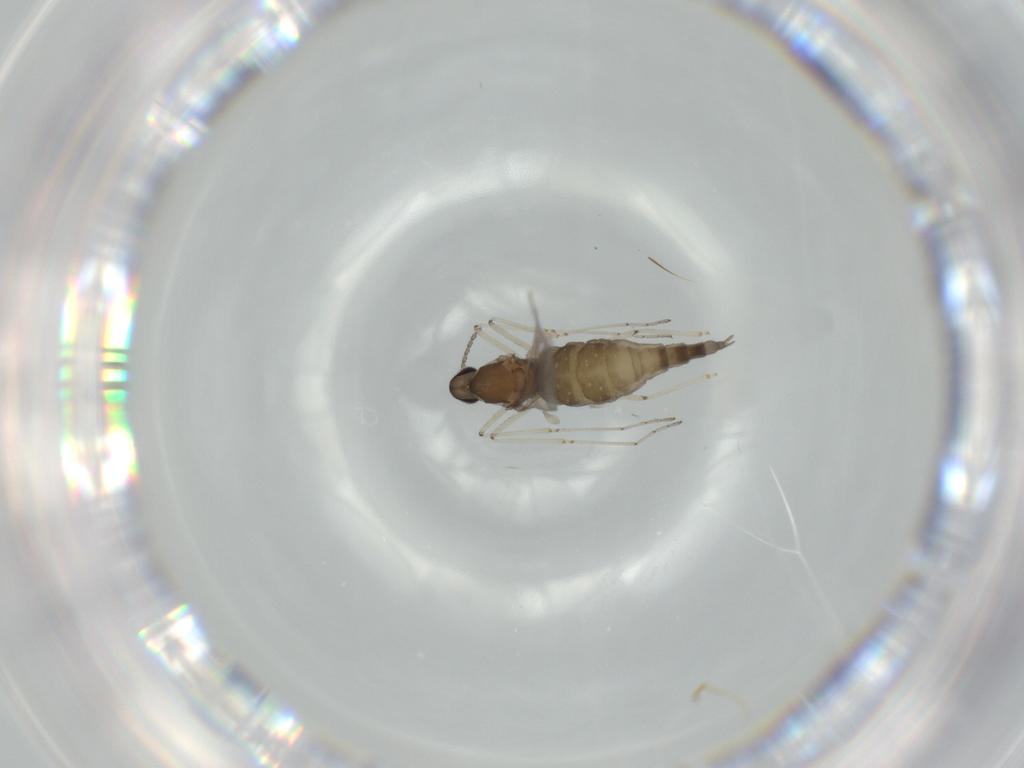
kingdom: Animalia
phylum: Arthropoda
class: Insecta
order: Diptera
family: Cecidomyiidae
